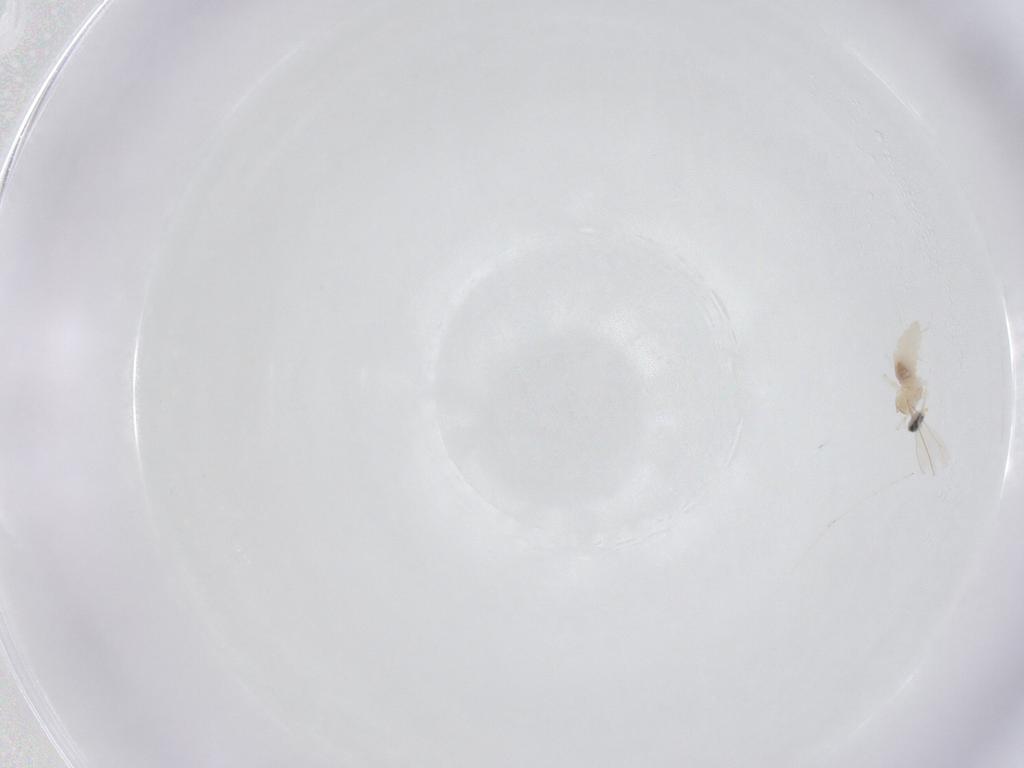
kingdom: Animalia
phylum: Arthropoda
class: Insecta
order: Diptera
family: Cecidomyiidae
